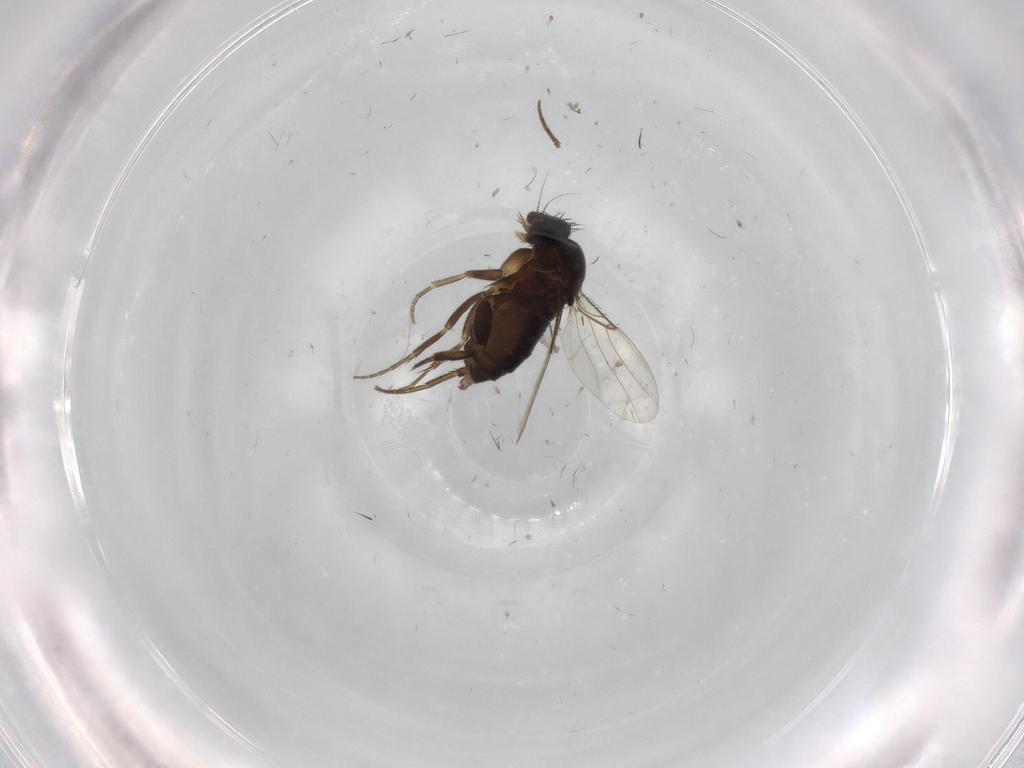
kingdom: Animalia
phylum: Arthropoda
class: Insecta
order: Diptera
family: Phoridae
